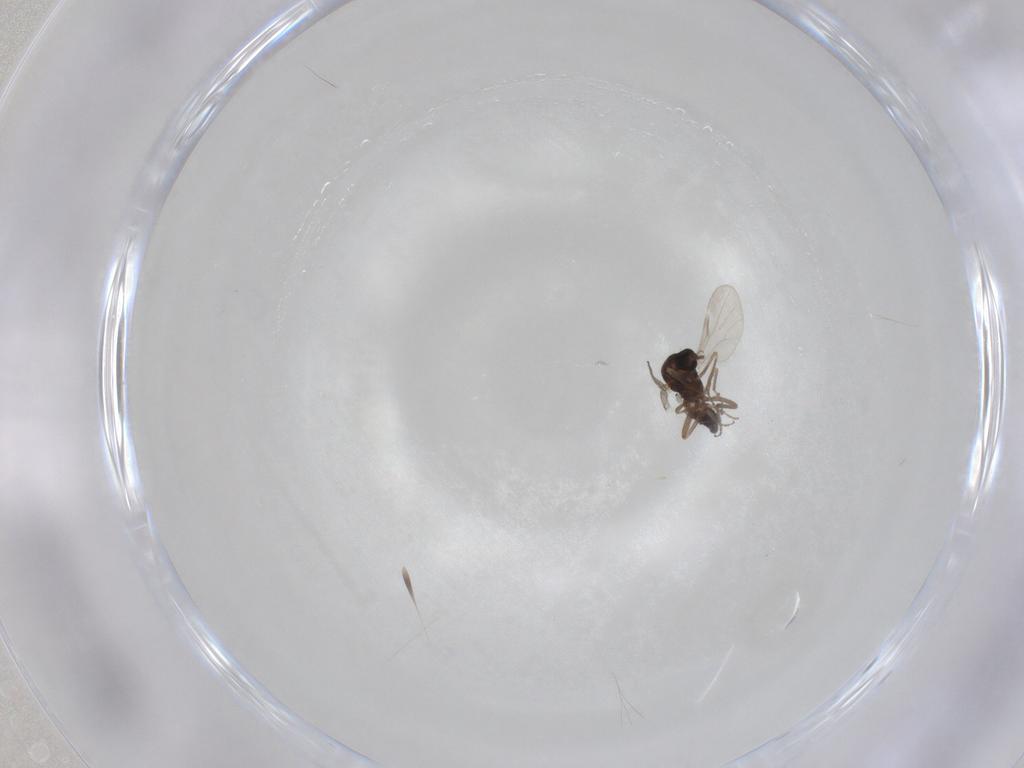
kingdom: Animalia
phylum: Arthropoda
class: Insecta
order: Diptera
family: Ceratopogonidae
